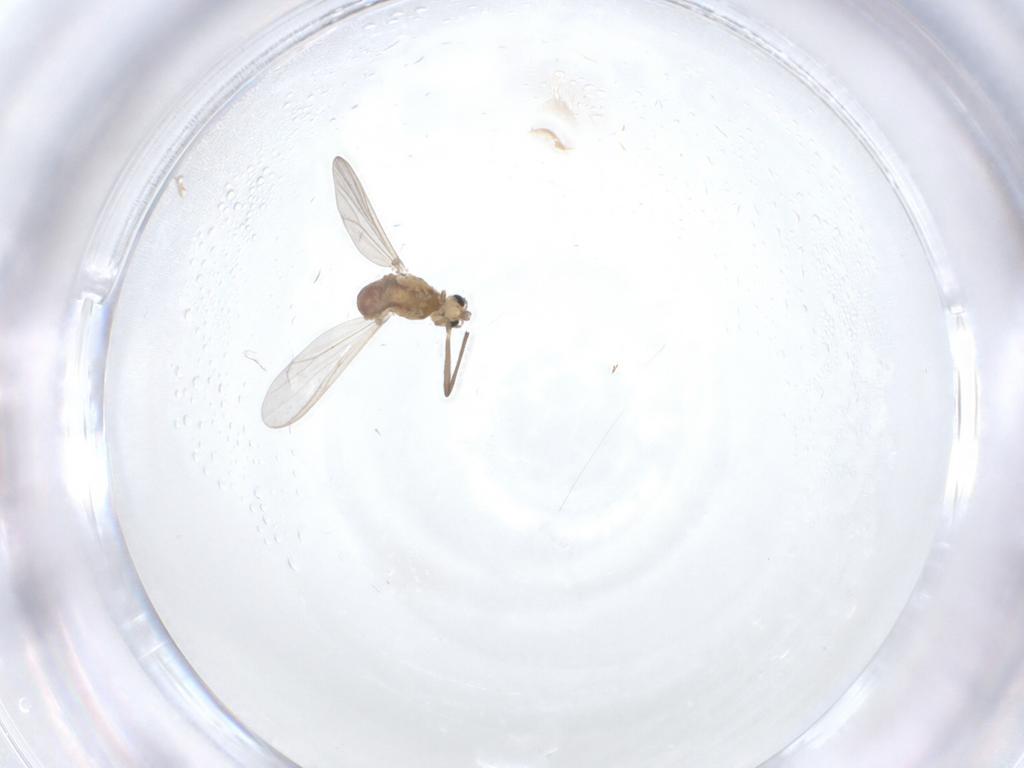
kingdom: Animalia
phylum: Arthropoda
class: Insecta
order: Diptera
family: Chironomidae
